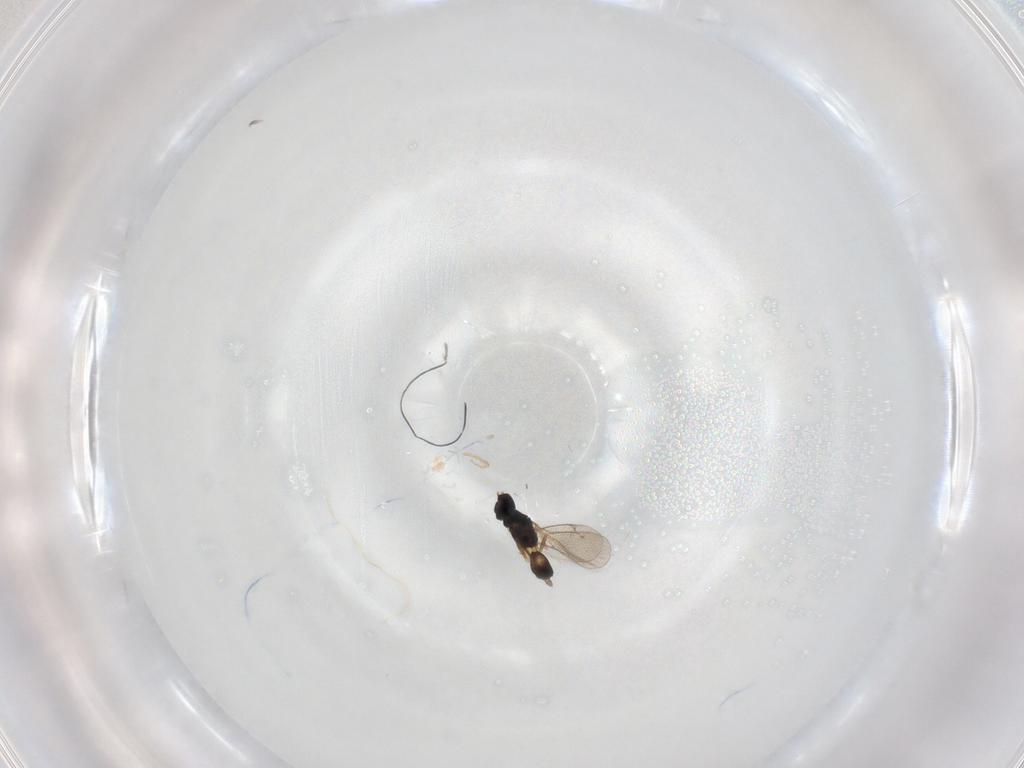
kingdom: Animalia
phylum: Arthropoda
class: Insecta
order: Hymenoptera
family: Eulophidae
